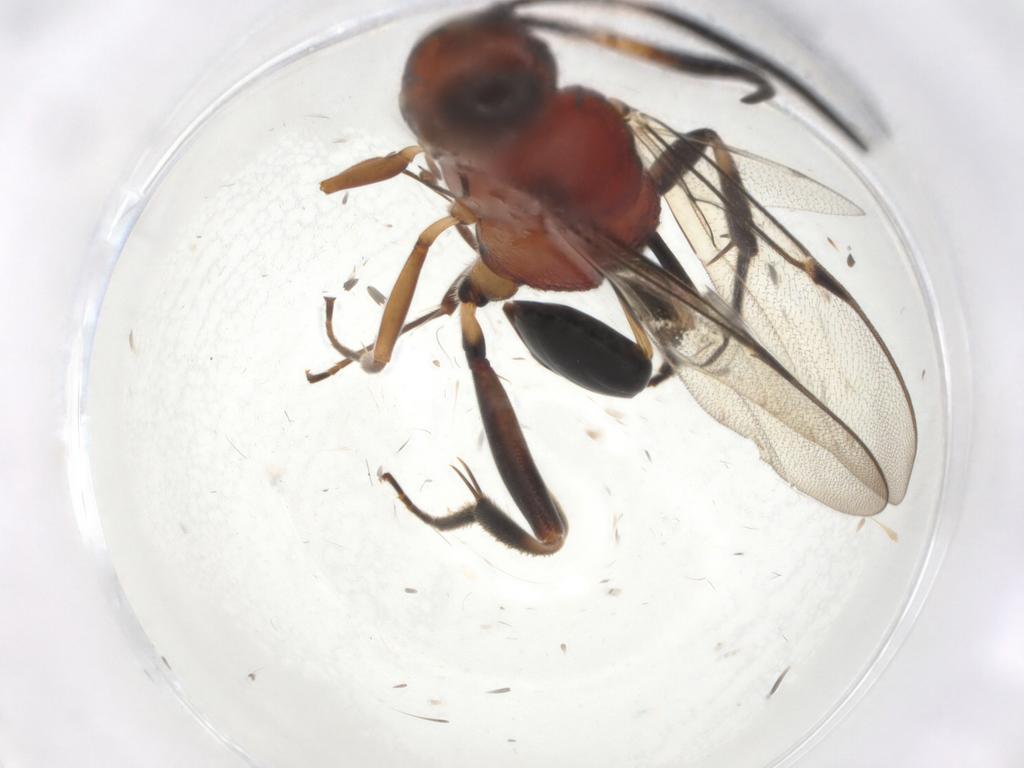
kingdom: Animalia
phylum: Arthropoda
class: Insecta
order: Hymenoptera
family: Evaniidae
